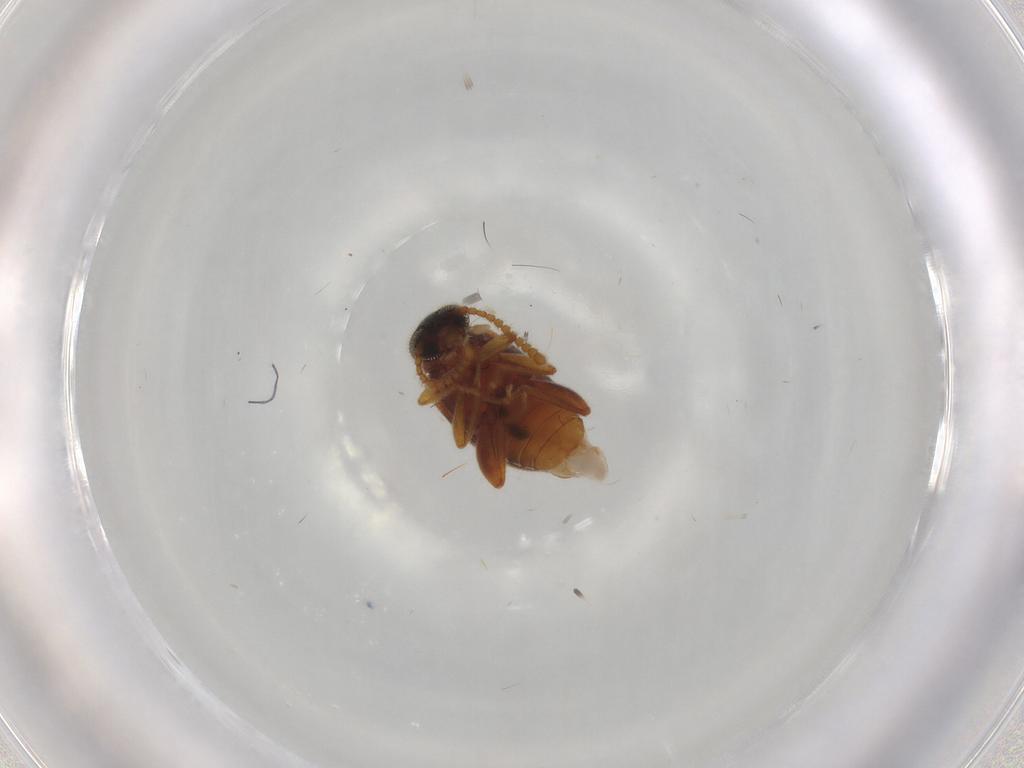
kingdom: Animalia
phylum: Arthropoda
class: Insecta
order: Coleoptera
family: Aderidae
